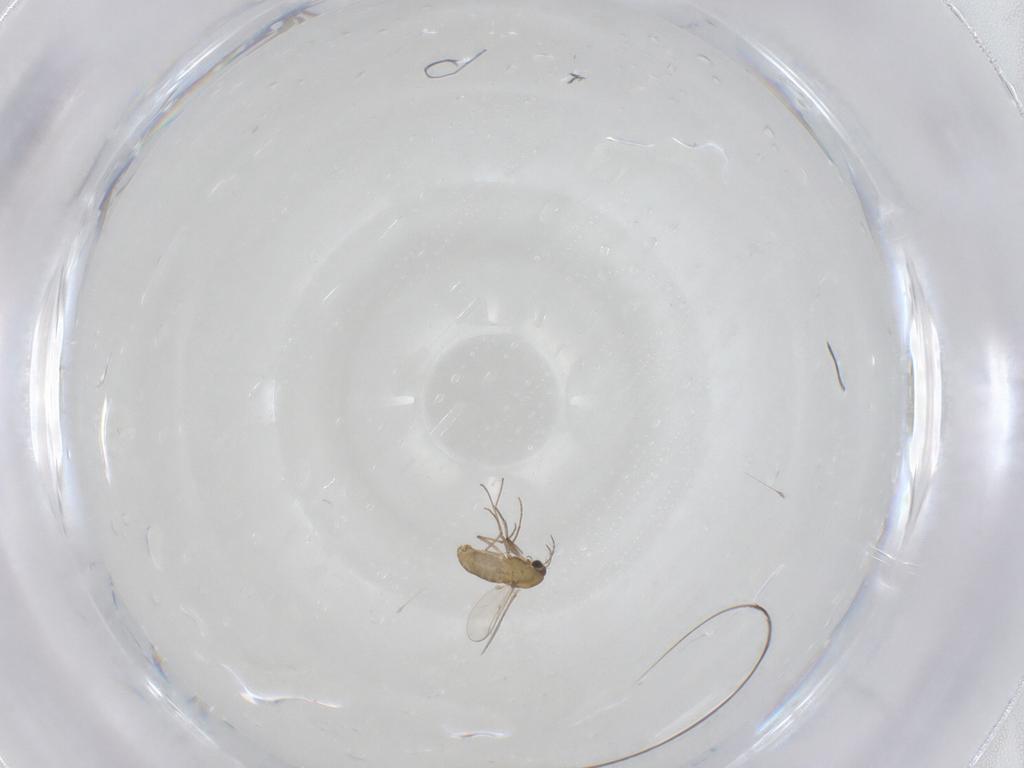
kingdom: Animalia
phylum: Arthropoda
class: Insecta
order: Diptera
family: Chironomidae
